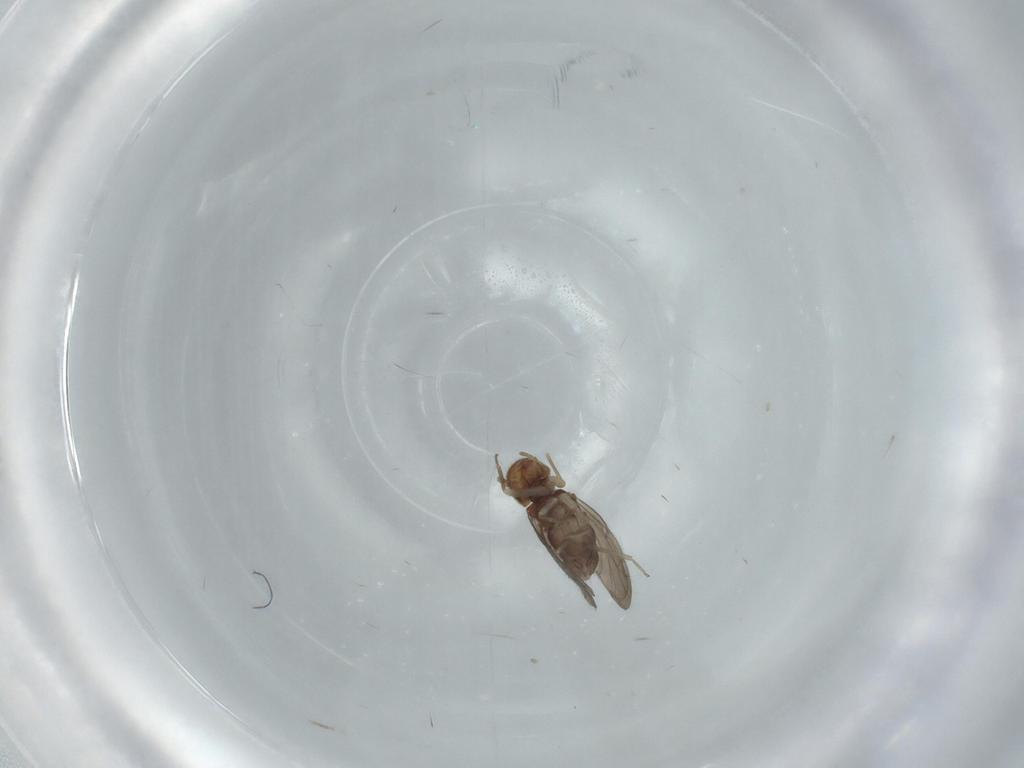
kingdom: Animalia
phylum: Arthropoda
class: Insecta
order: Psocodea
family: Ectopsocidae
